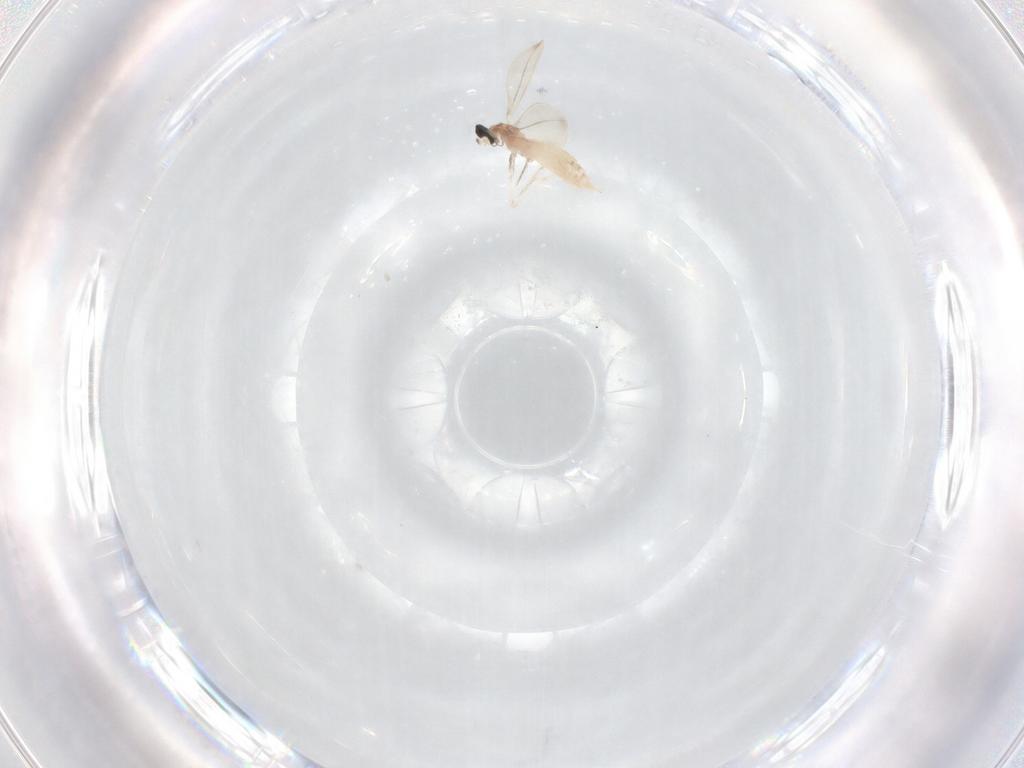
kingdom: Animalia
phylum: Arthropoda
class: Insecta
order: Diptera
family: Cecidomyiidae
